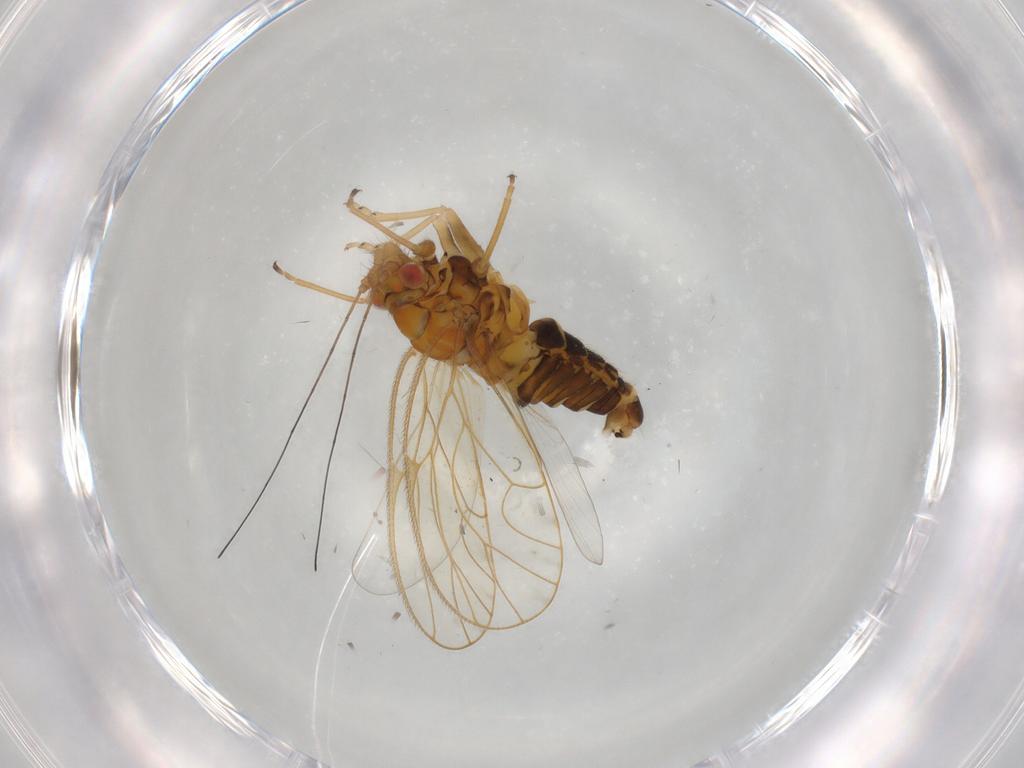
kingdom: Animalia
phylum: Arthropoda
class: Insecta
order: Hemiptera
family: Psyllidae
